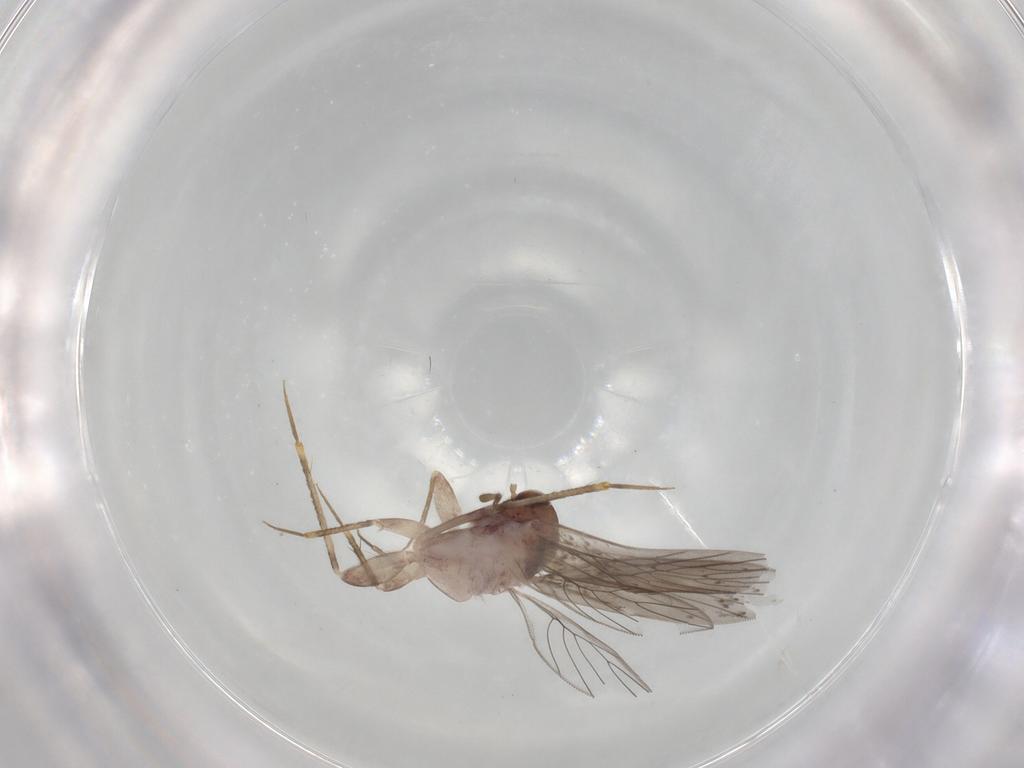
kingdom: Animalia
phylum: Arthropoda
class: Insecta
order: Psocodea
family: Lepidopsocidae
